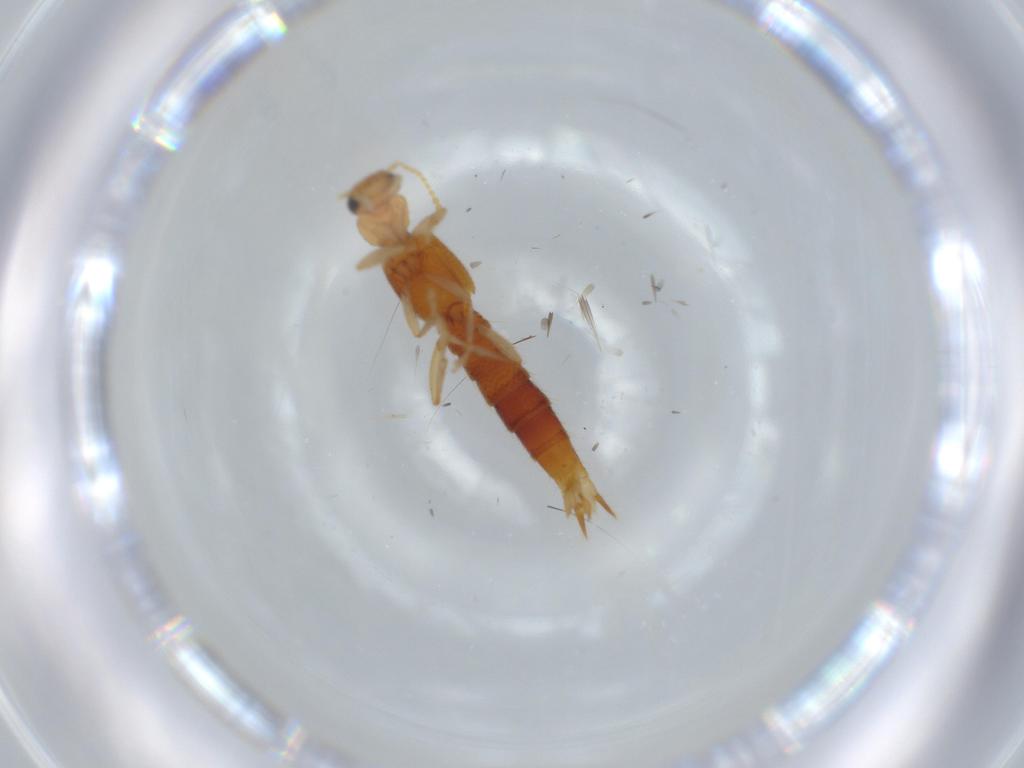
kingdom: Animalia
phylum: Arthropoda
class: Insecta
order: Coleoptera
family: Staphylinidae
